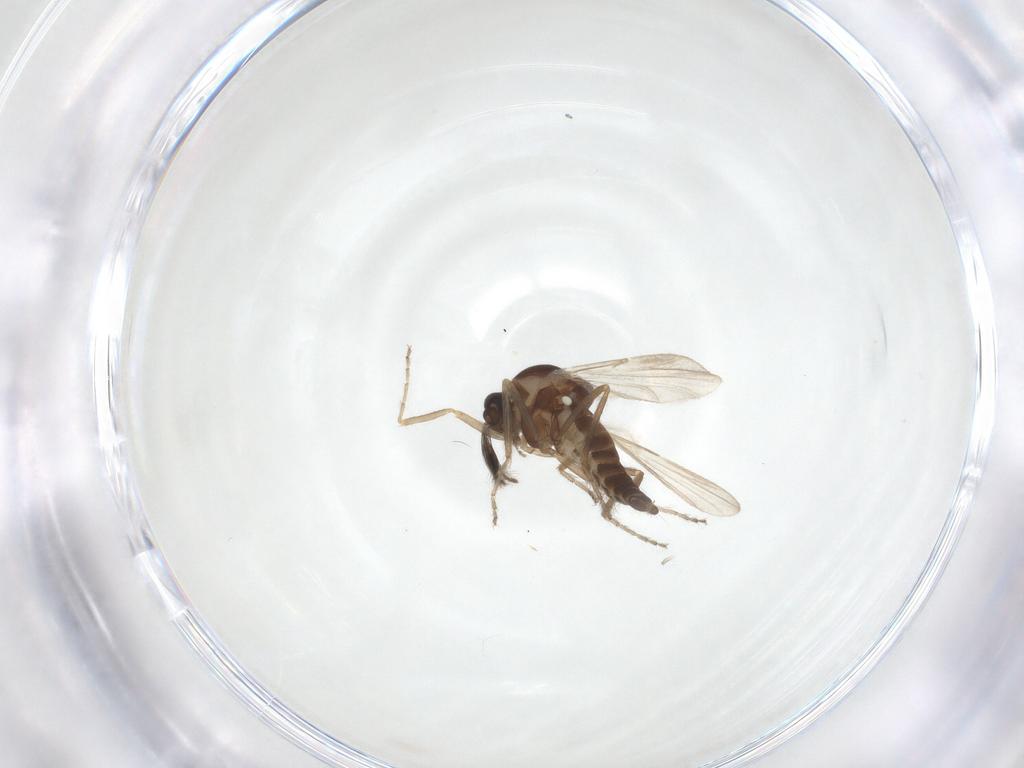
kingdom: Animalia
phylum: Arthropoda
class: Insecta
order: Diptera
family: Ceratopogonidae
